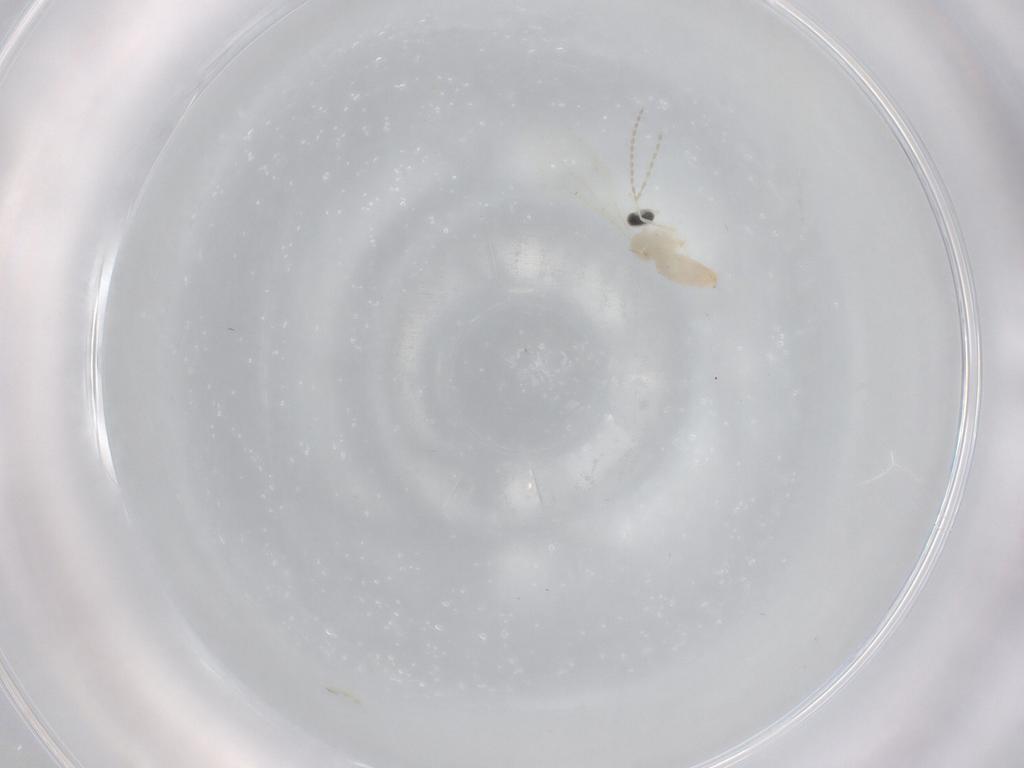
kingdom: Animalia
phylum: Arthropoda
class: Insecta
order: Diptera
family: Cecidomyiidae
